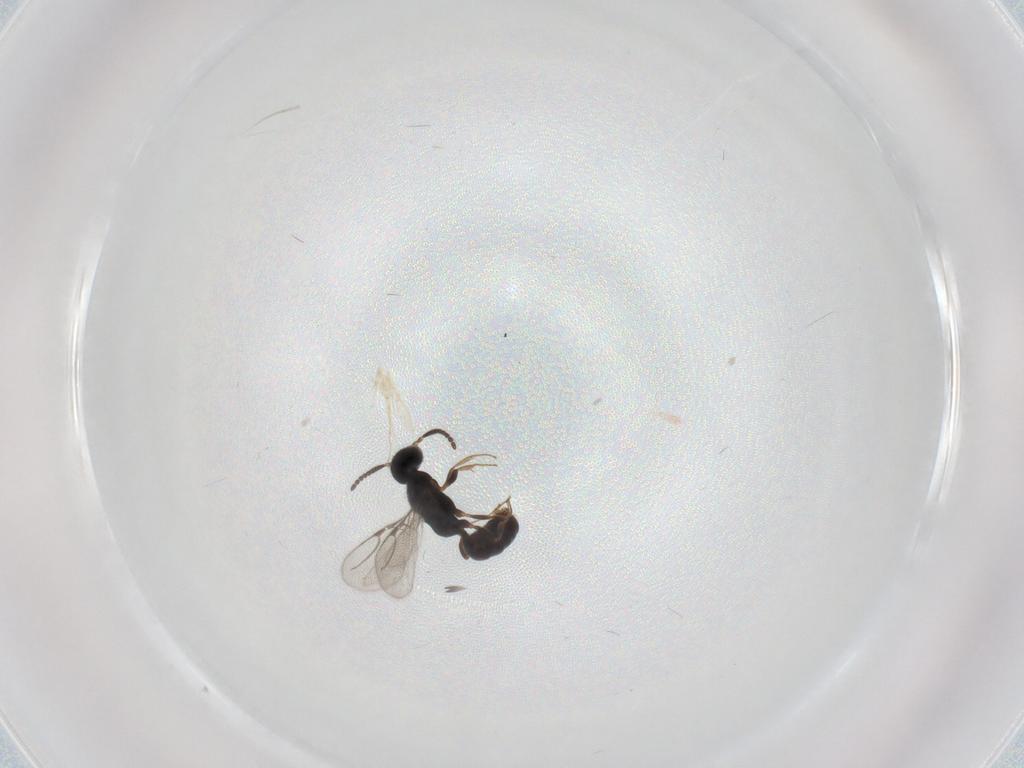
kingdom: Animalia
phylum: Arthropoda
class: Insecta
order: Hymenoptera
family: Bethylidae
